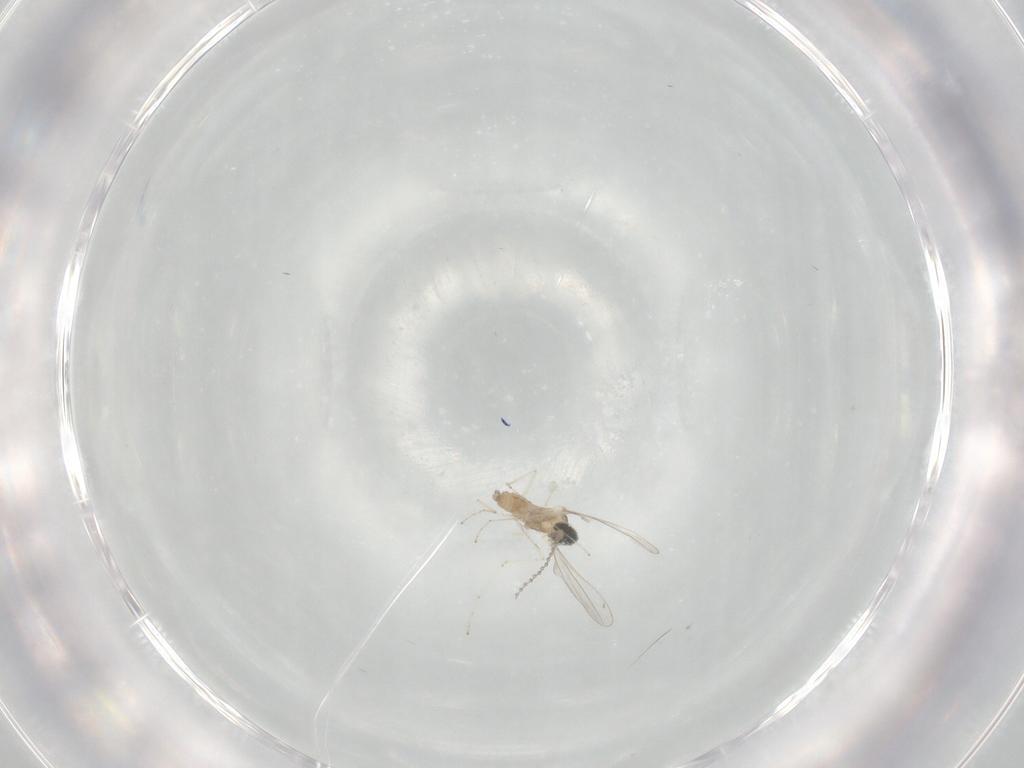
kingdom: Animalia
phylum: Arthropoda
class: Insecta
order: Diptera
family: Cecidomyiidae
